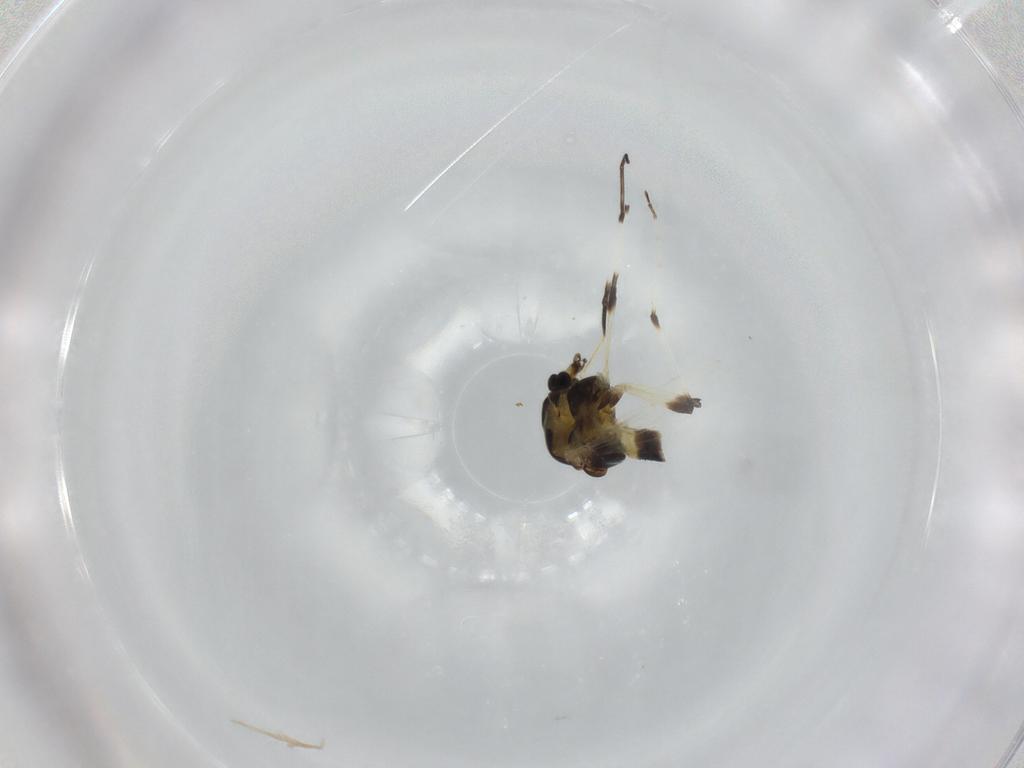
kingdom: Animalia
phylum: Arthropoda
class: Insecta
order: Diptera
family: Chironomidae
